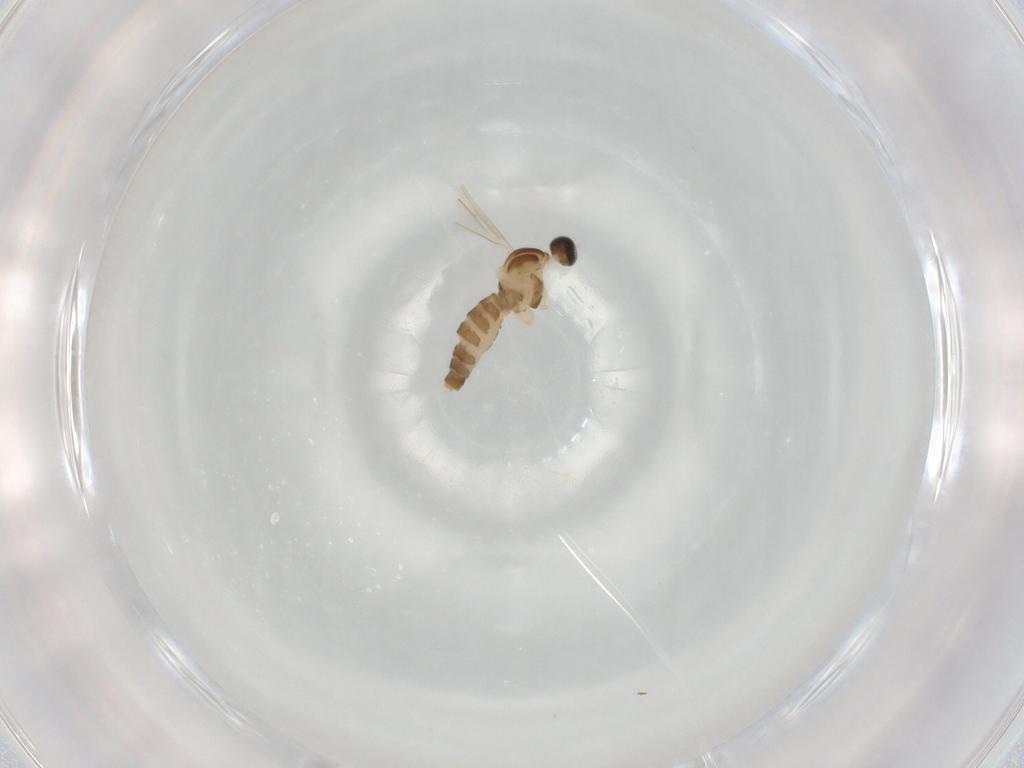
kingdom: Animalia
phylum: Arthropoda
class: Insecta
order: Diptera
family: Cecidomyiidae
